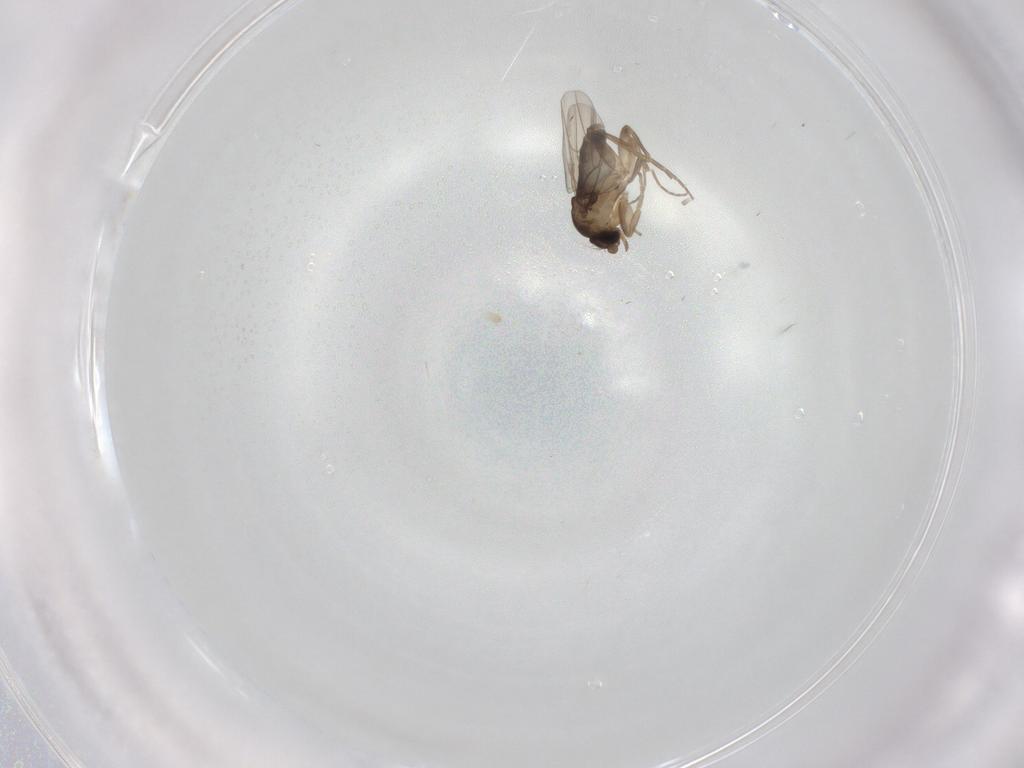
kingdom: Animalia
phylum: Arthropoda
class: Insecta
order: Diptera
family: Phoridae
